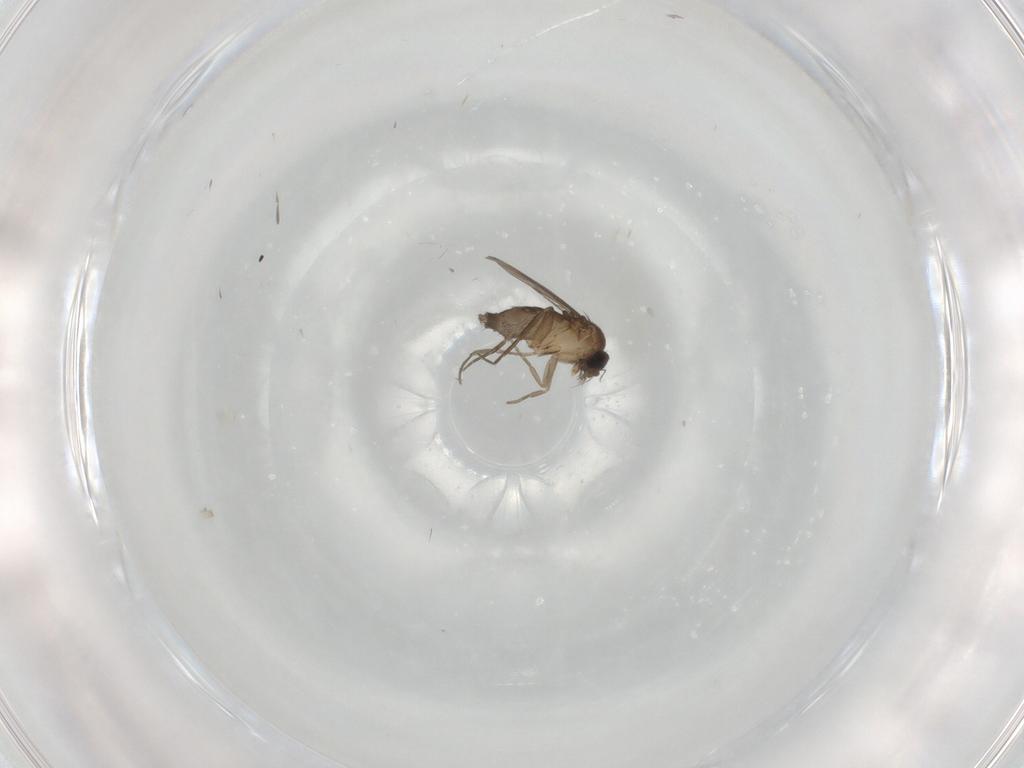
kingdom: Animalia
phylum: Arthropoda
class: Insecta
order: Diptera
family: Phoridae
